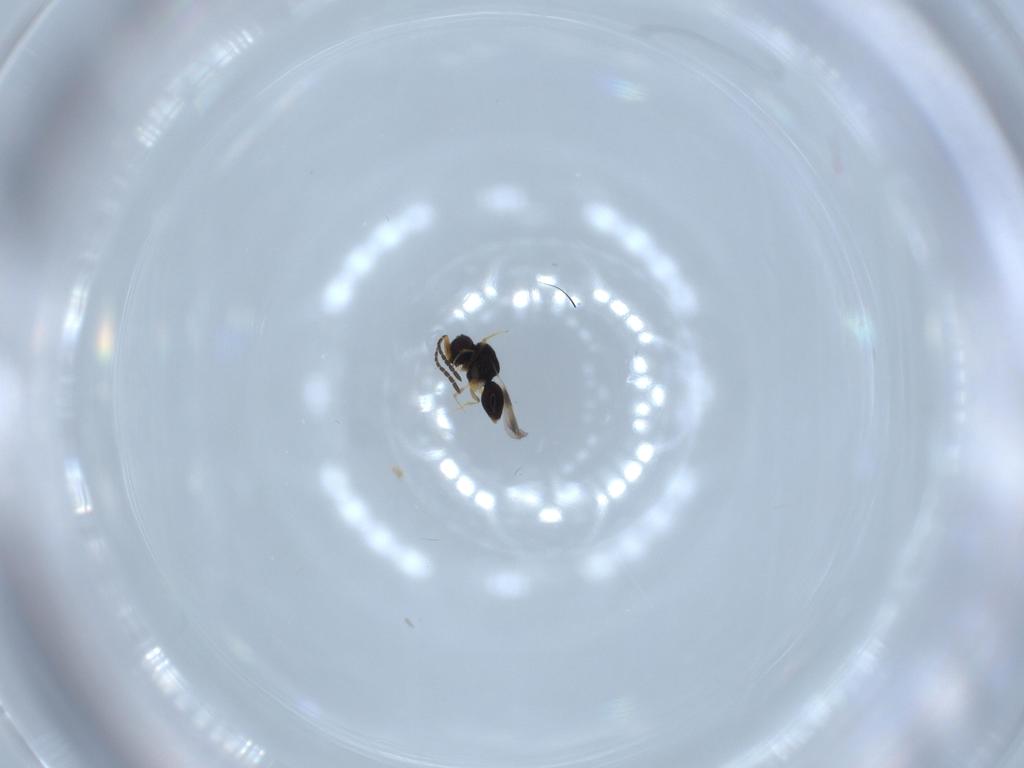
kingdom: Animalia
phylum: Arthropoda
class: Insecta
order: Hymenoptera
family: Ceraphronidae
